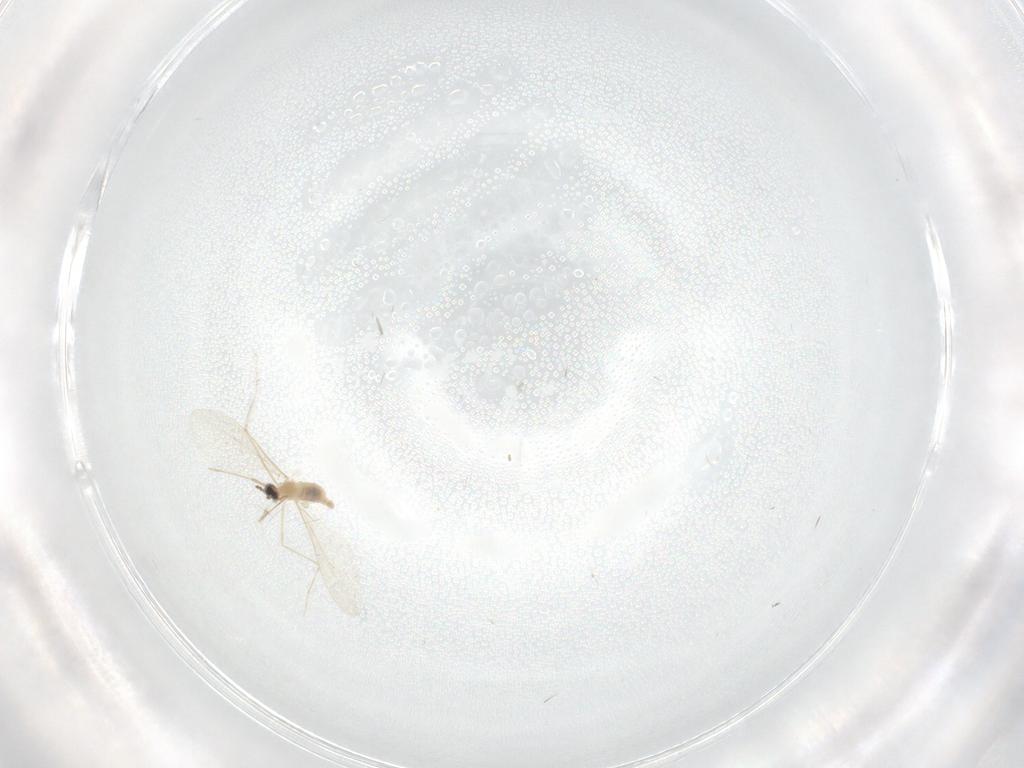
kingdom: Animalia
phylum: Arthropoda
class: Insecta
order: Diptera
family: Cecidomyiidae
